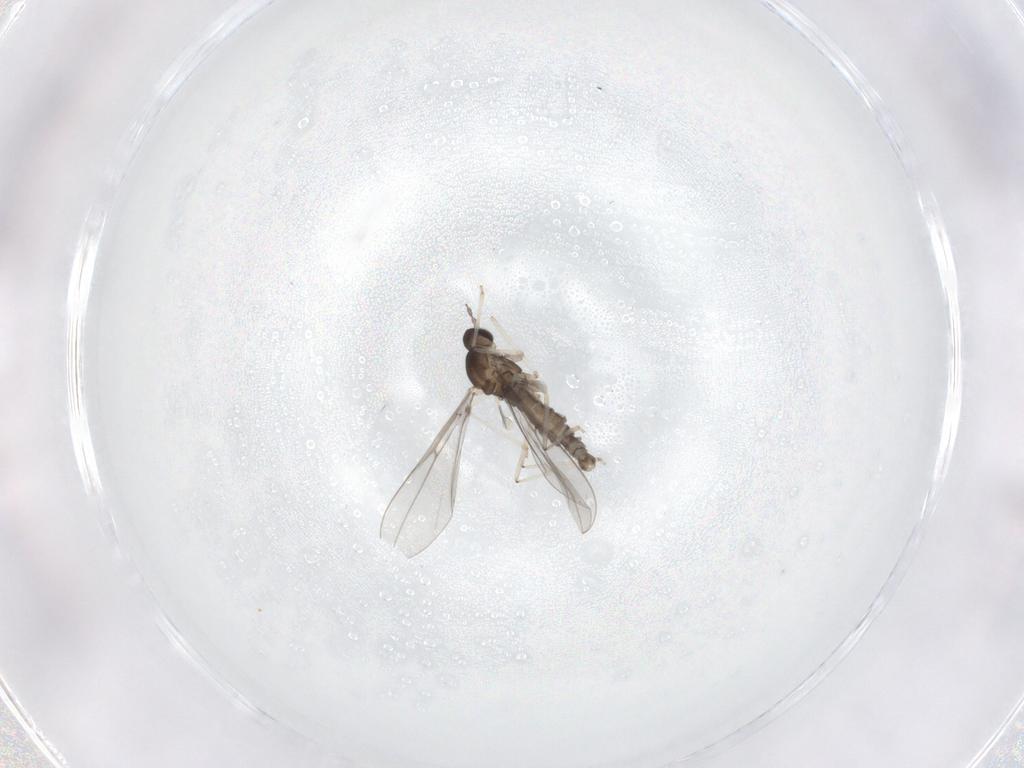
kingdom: Animalia
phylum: Arthropoda
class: Insecta
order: Diptera
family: Cecidomyiidae
